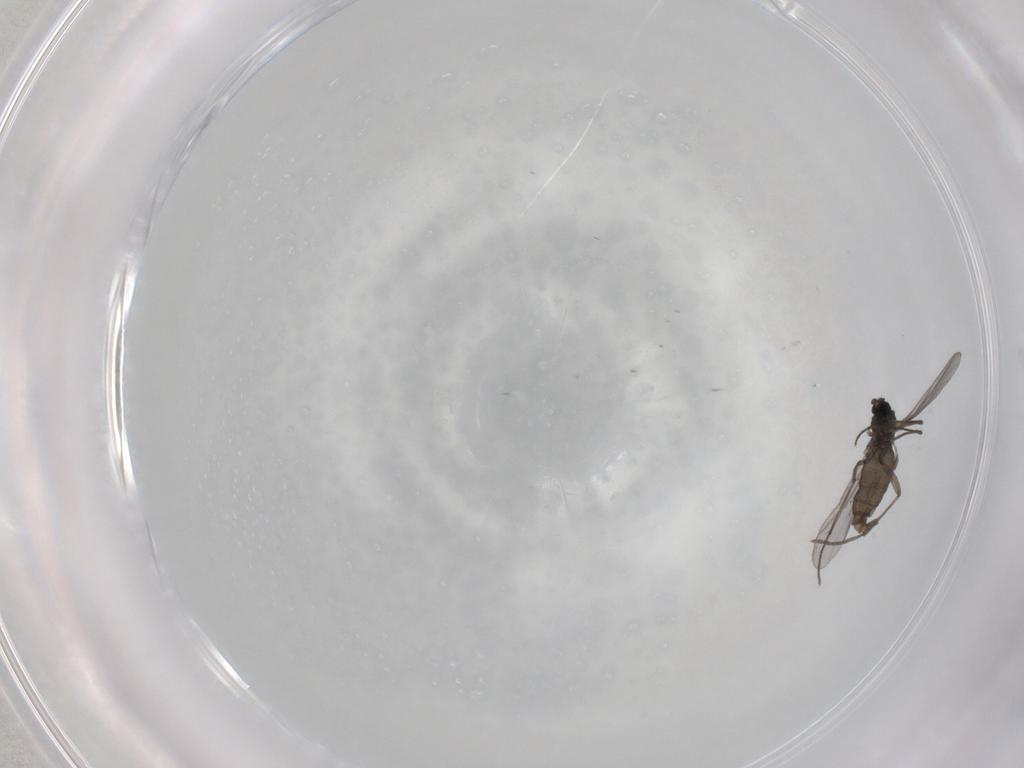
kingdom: Animalia
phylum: Arthropoda
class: Insecta
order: Diptera
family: Sciaridae
